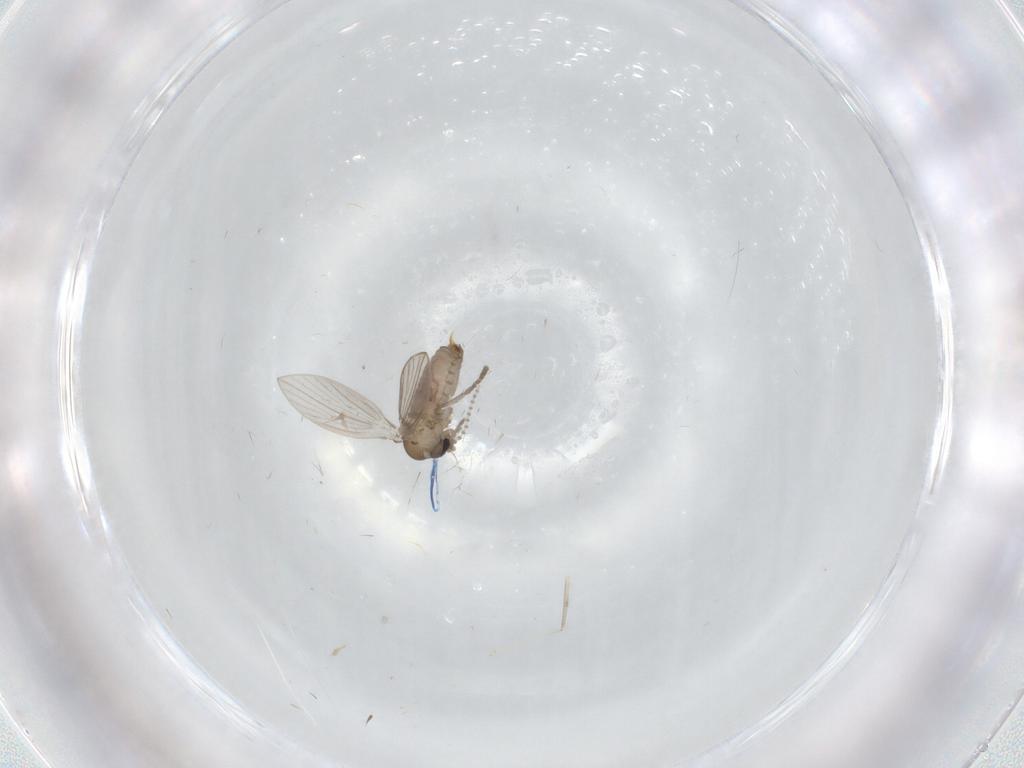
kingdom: Animalia
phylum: Arthropoda
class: Insecta
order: Diptera
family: Psychodidae
